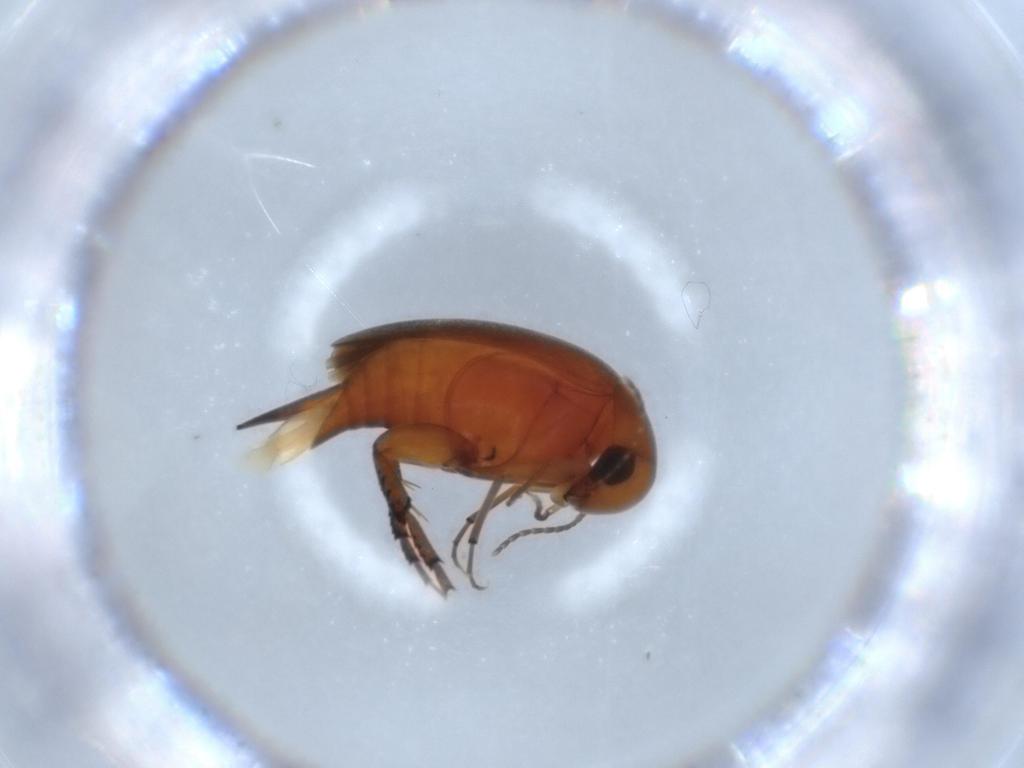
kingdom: Animalia
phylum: Arthropoda
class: Insecta
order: Coleoptera
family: Mordellidae
